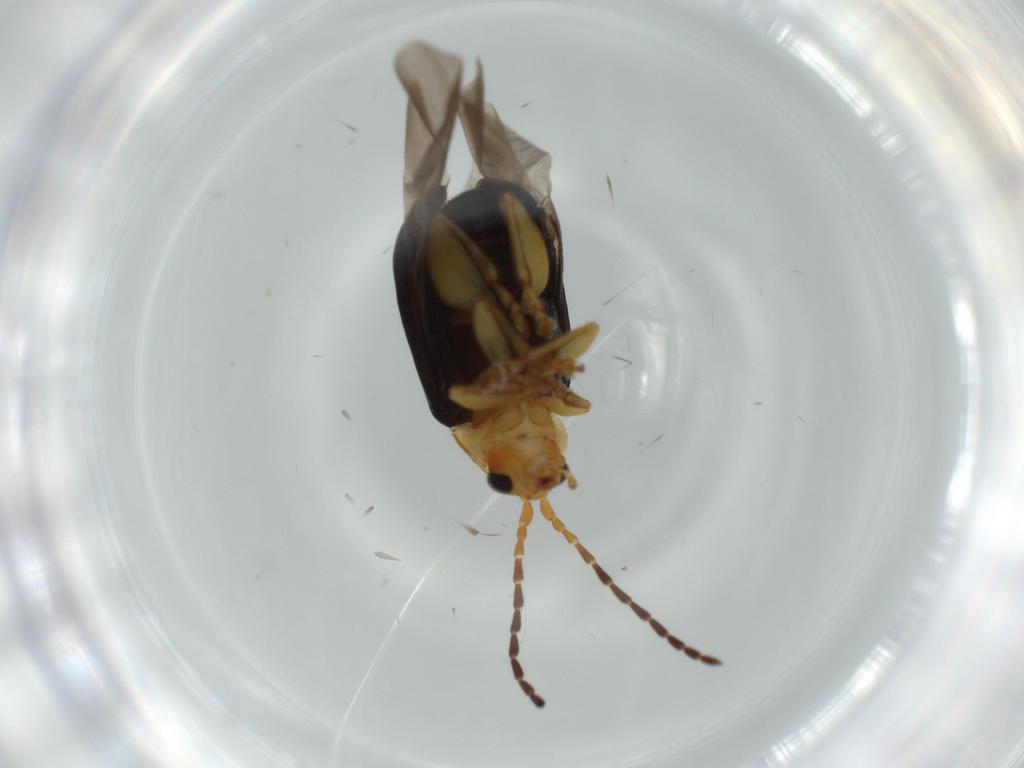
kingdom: Animalia
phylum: Arthropoda
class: Insecta
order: Coleoptera
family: Chrysomelidae
